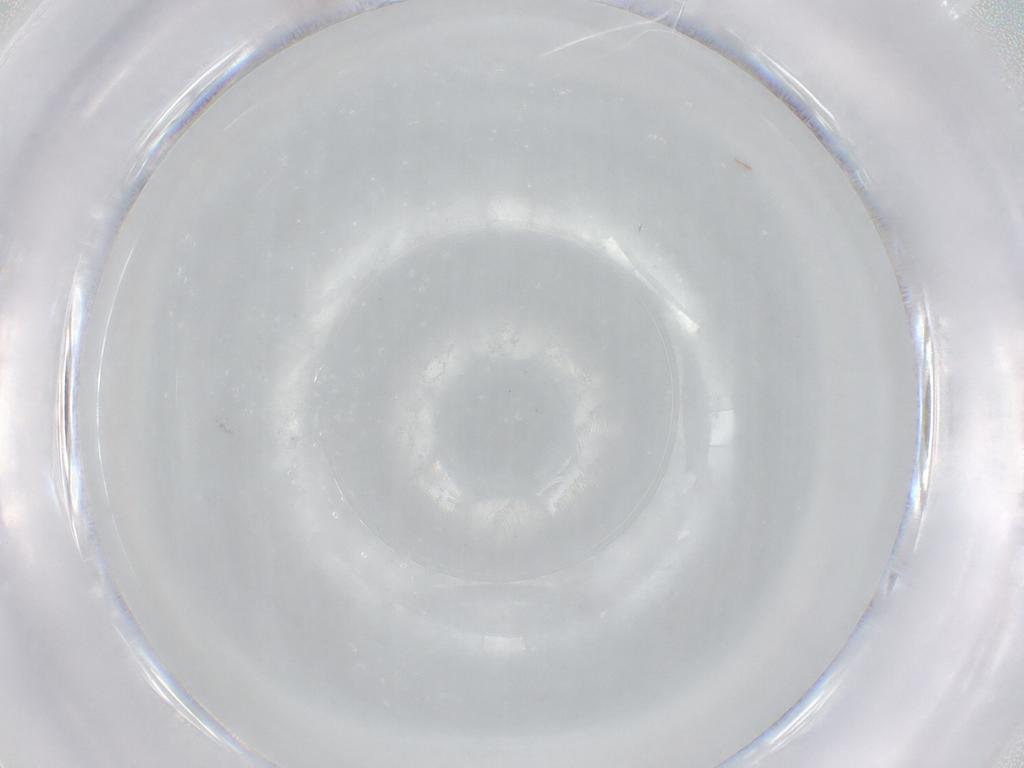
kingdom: Animalia
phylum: Arthropoda
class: Insecta
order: Hemiptera
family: Pseudococcidae
